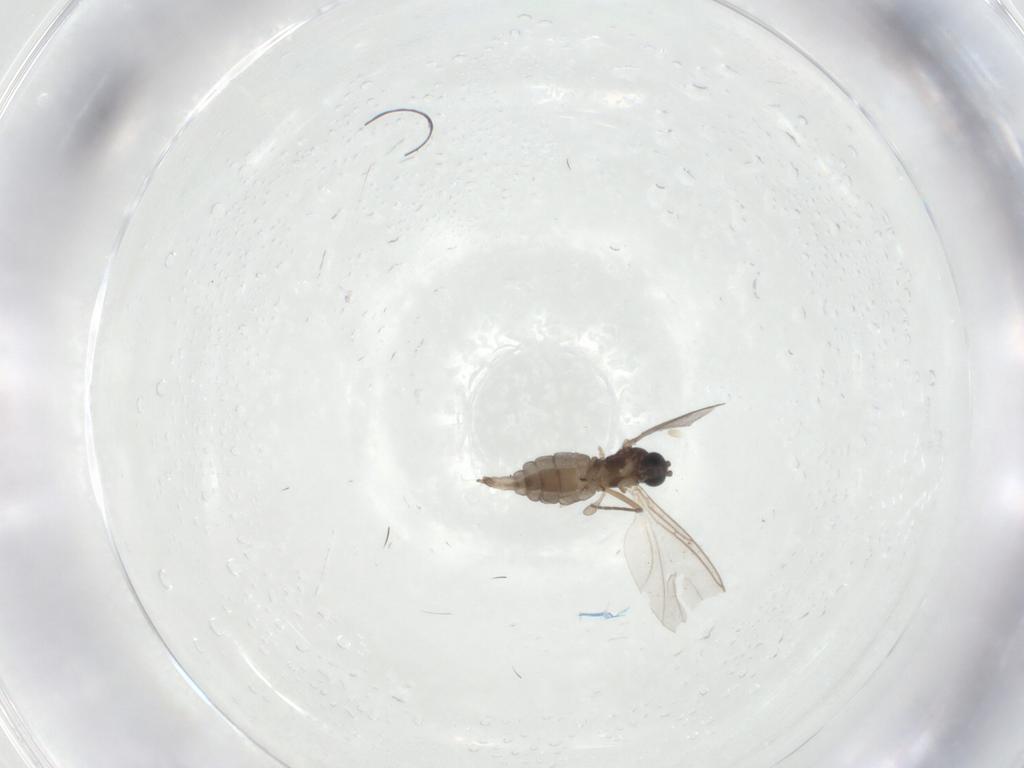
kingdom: Animalia
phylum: Arthropoda
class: Insecta
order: Diptera
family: Sciaridae
